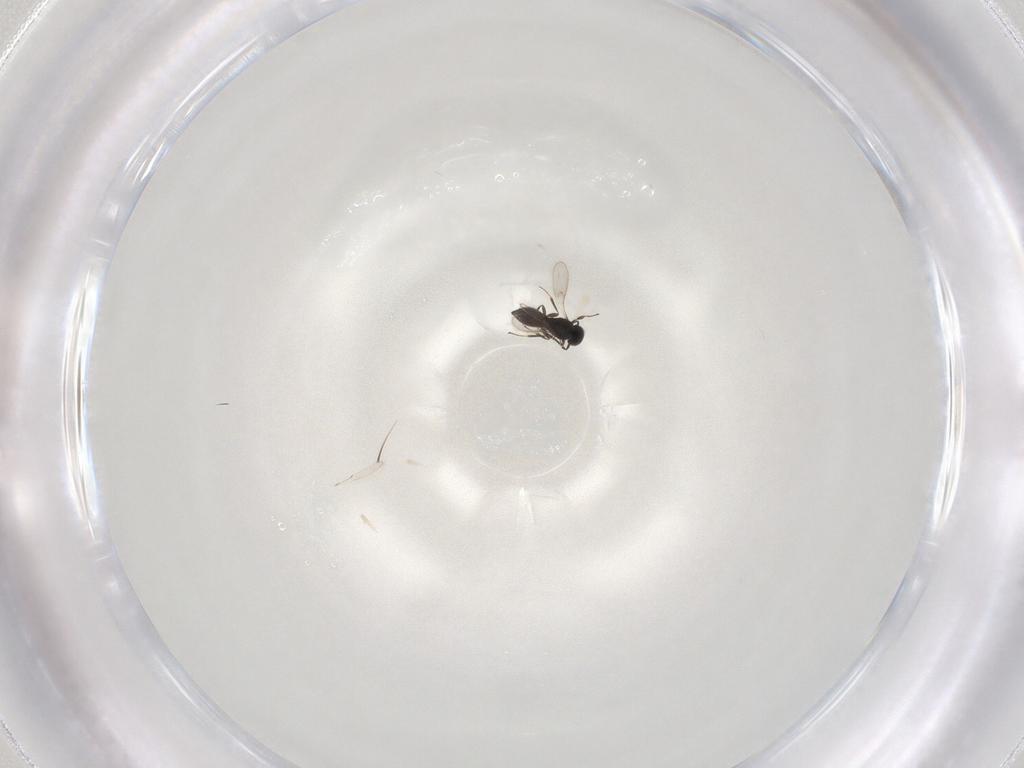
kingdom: Animalia
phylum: Arthropoda
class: Insecta
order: Hymenoptera
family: Scelionidae
